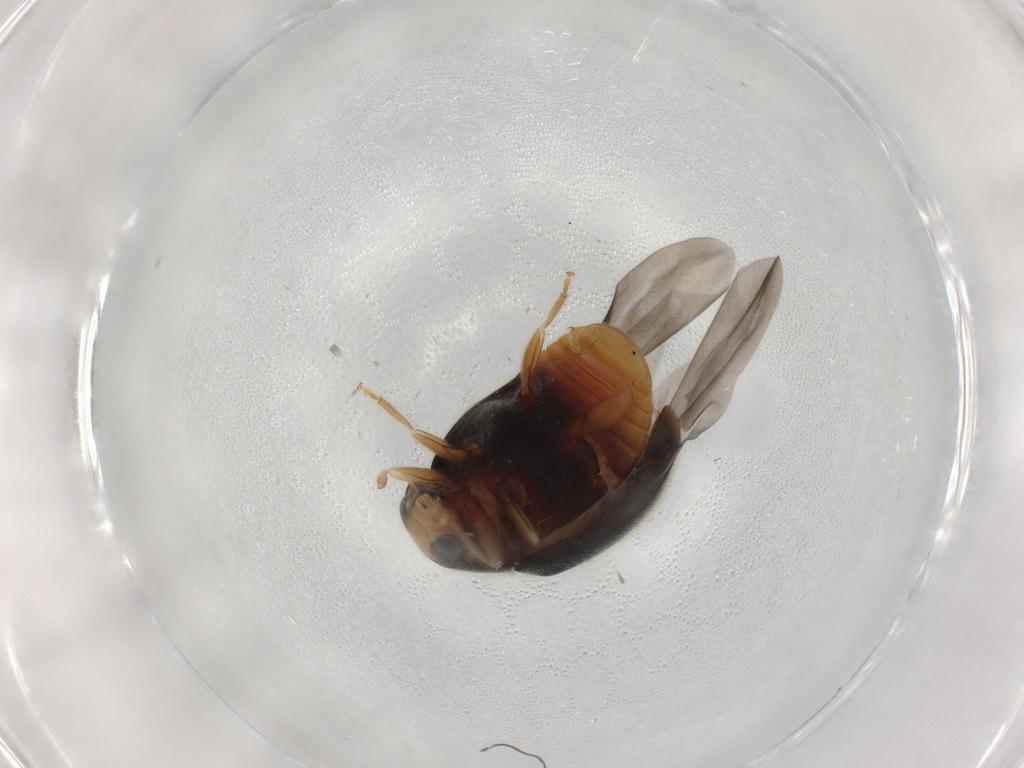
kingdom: Animalia
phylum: Arthropoda
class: Insecta
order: Coleoptera
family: Coccinellidae
